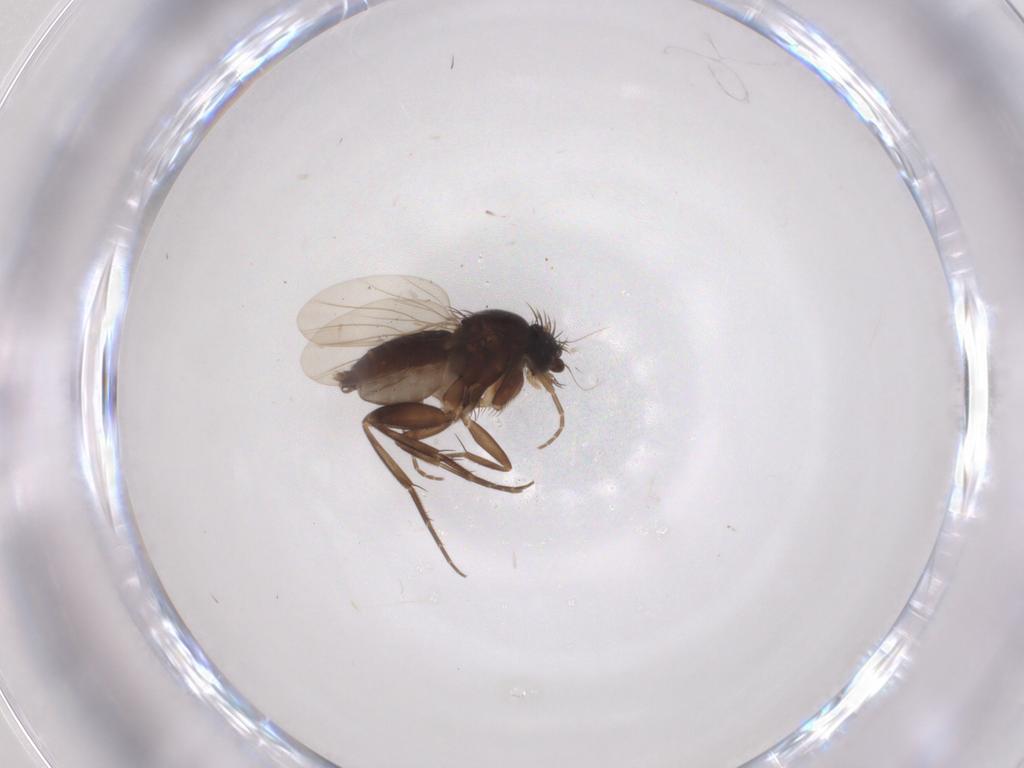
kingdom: Animalia
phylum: Arthropoda
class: Insecta
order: Diptera
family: Phoridae
